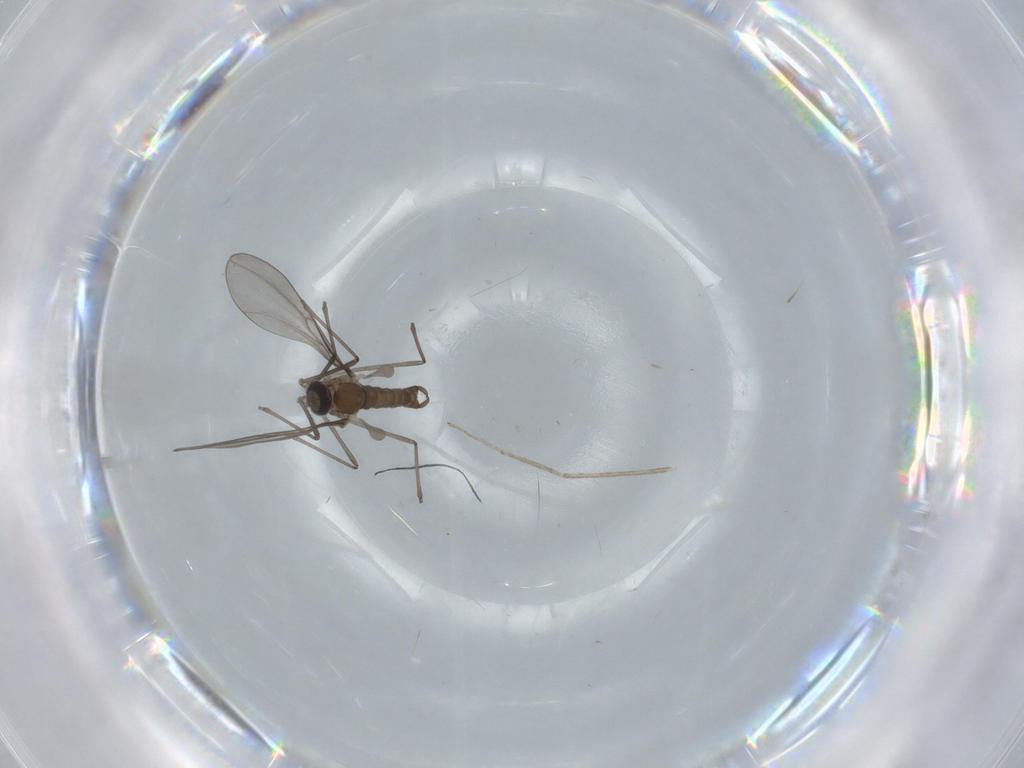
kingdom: Animalia
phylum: Arthropoda
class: Insecta
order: Diptera
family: Cecidomyiidae
